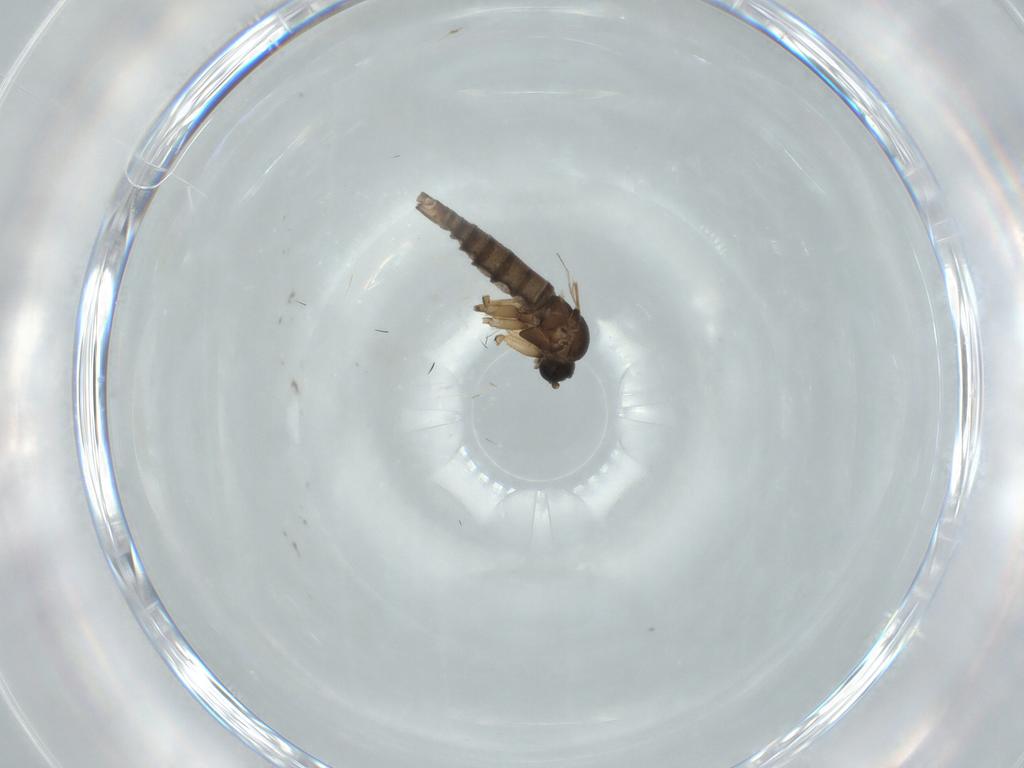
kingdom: Animalia
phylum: Arthropoda
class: Insecta
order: Diptera
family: Sciaridae
